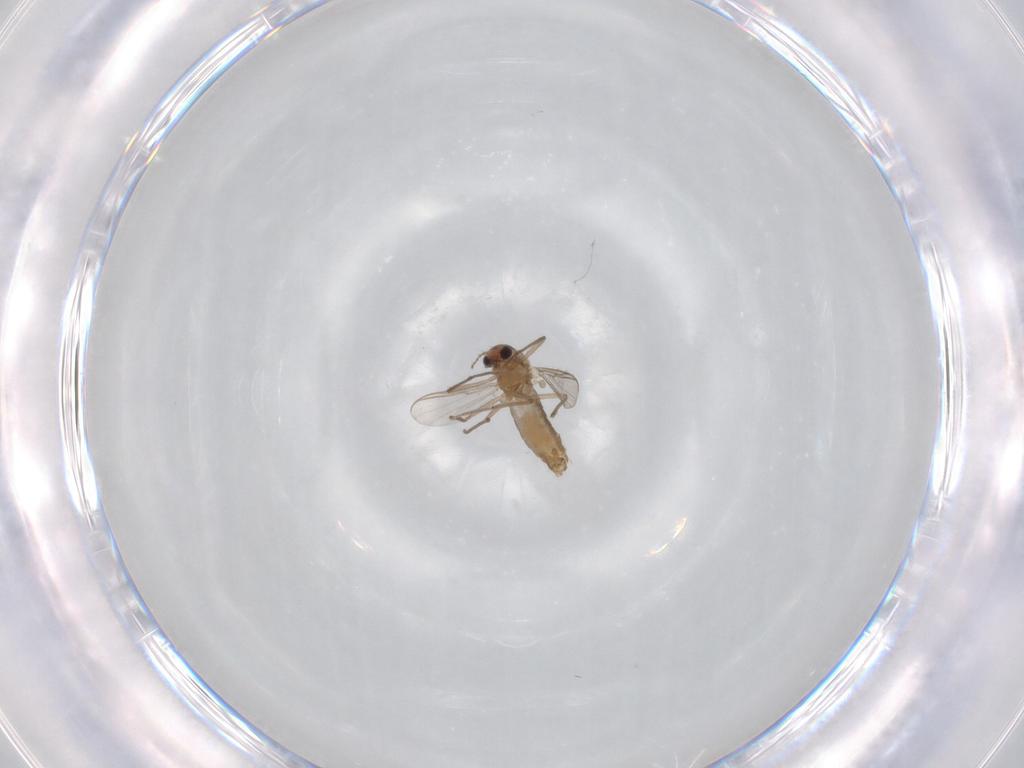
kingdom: Animalia
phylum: Arthropoda
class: Insecta
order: Diptera
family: Chironomidae
